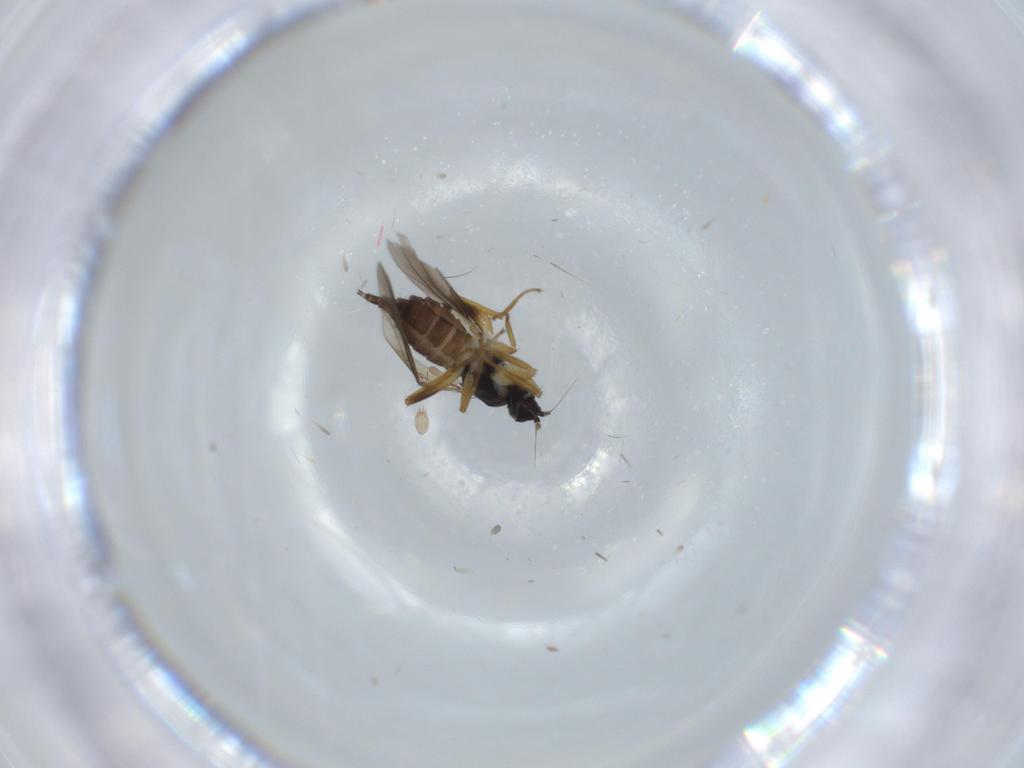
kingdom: Animalia
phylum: Arthropoda
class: Insecta
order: Diptera
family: Hybotidae
